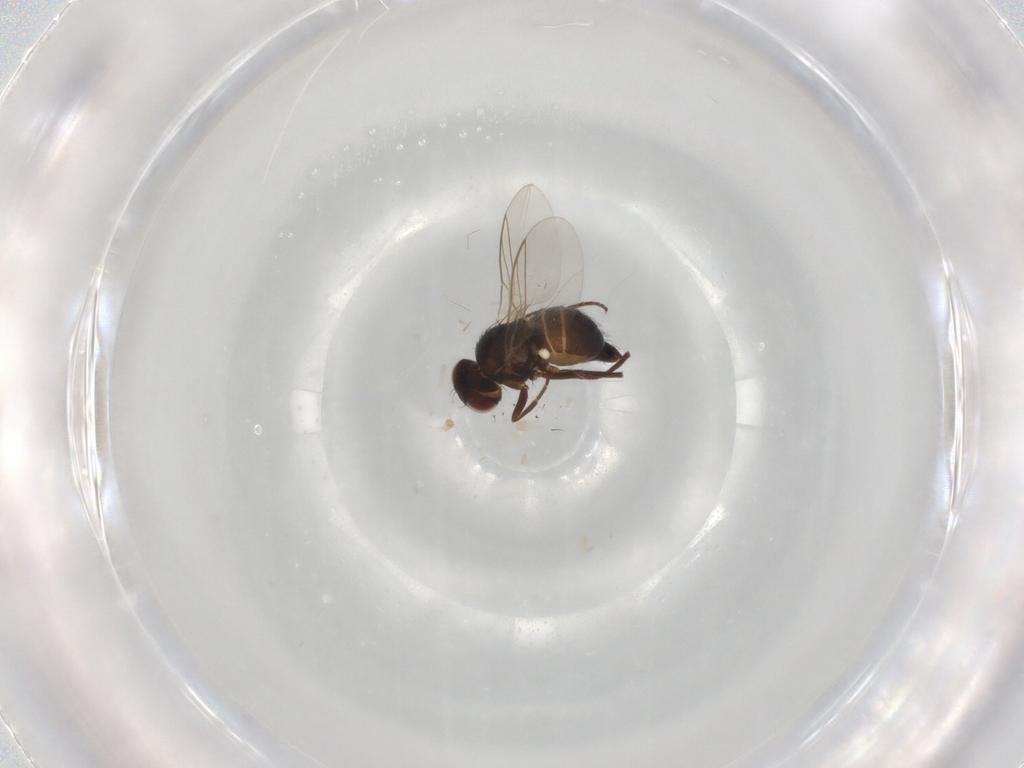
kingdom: Animalia
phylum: Arthropoda
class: Insecta
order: Diptera
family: Agromyzidae
